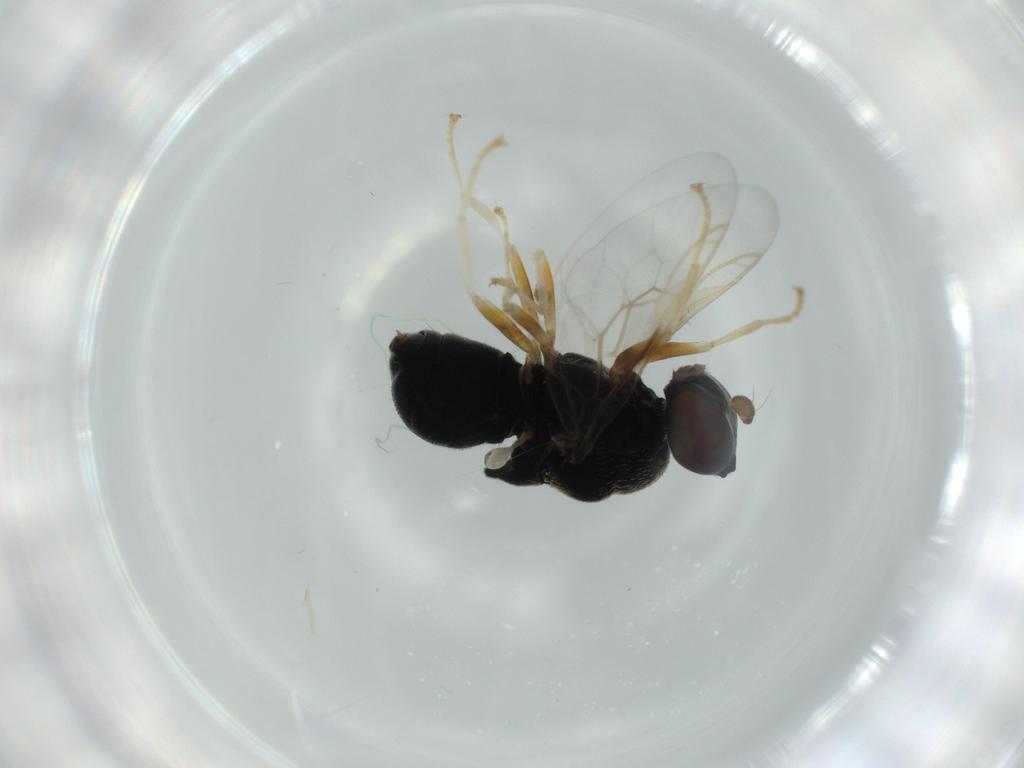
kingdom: Animalia
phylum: Arthropoda
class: Insecta
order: Diptera
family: Stratiomyidae
